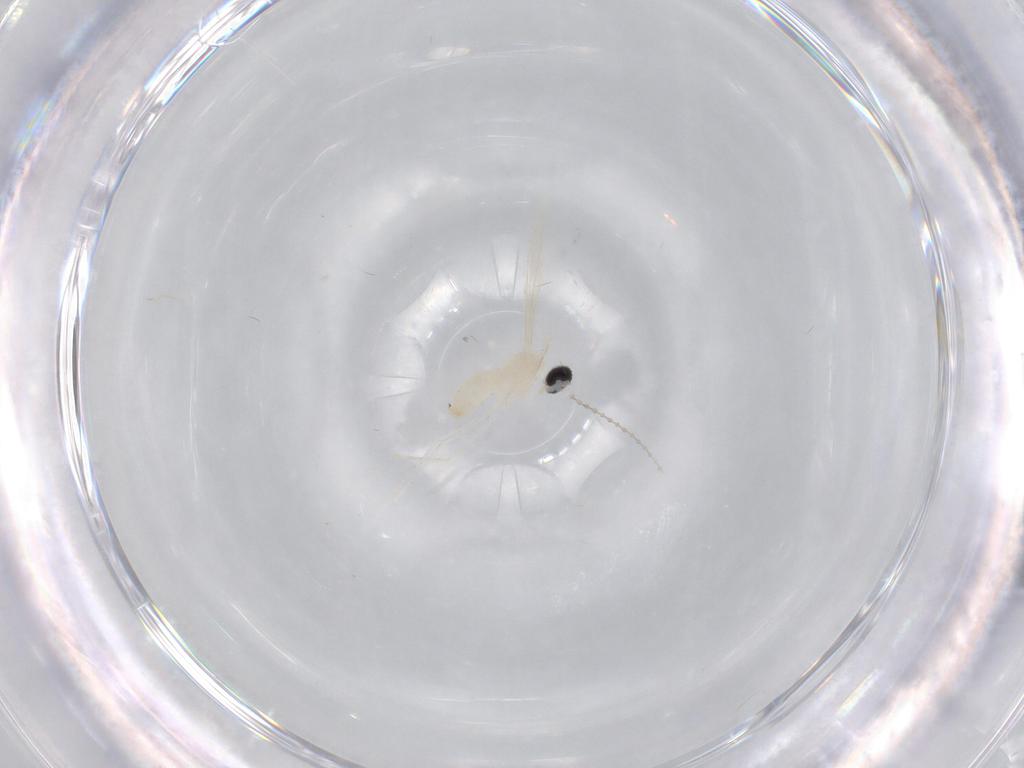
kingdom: Animalia
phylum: Arthropoda
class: Insecta
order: Diptera
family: Cecidomyiidae
